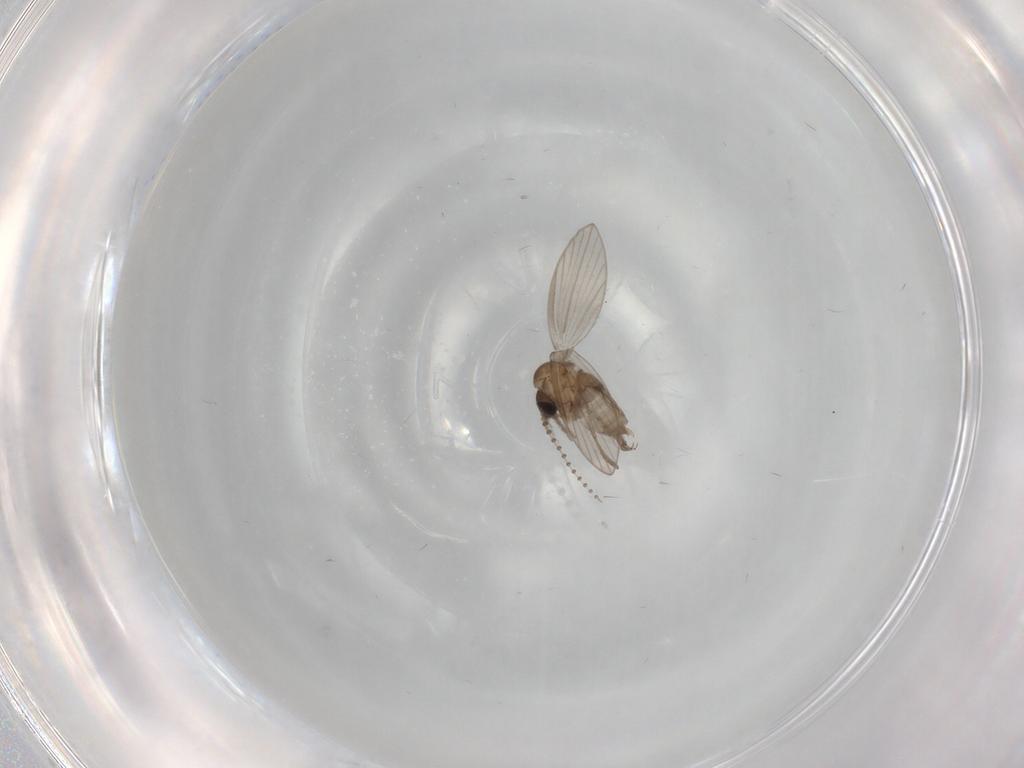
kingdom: Animalia
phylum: Arthropoda
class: Insecta
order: Diptera
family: Psychodidae
